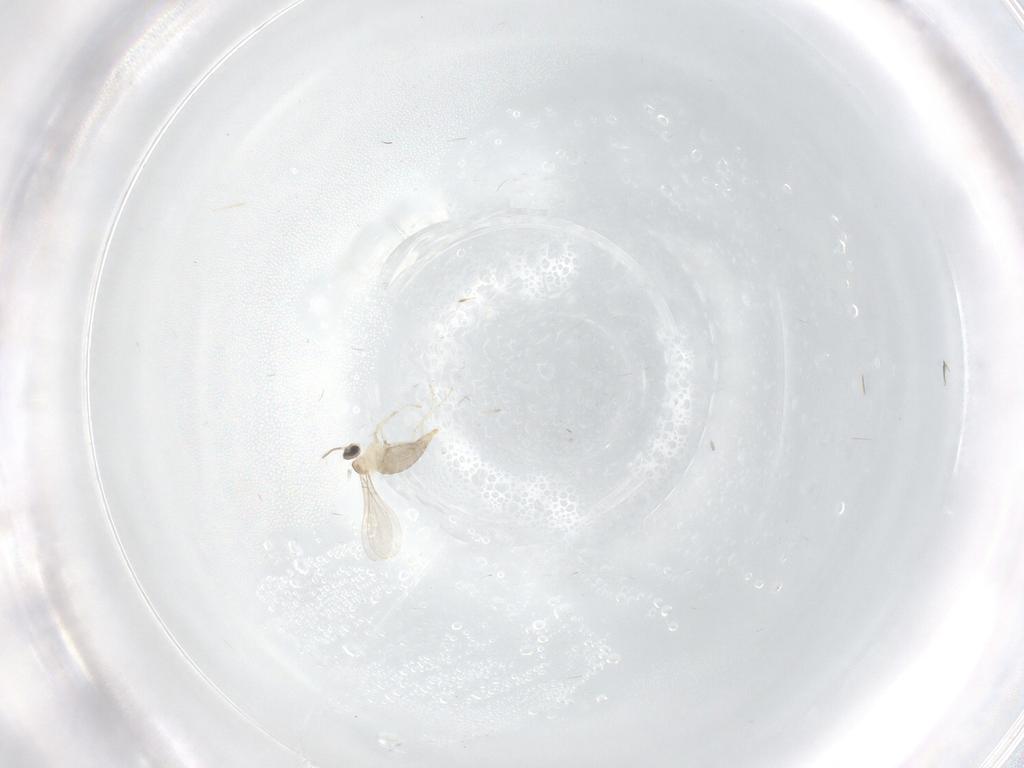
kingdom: Animalia
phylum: Arthropoda
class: Insecta
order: Diptera
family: Cecidomyiidae
